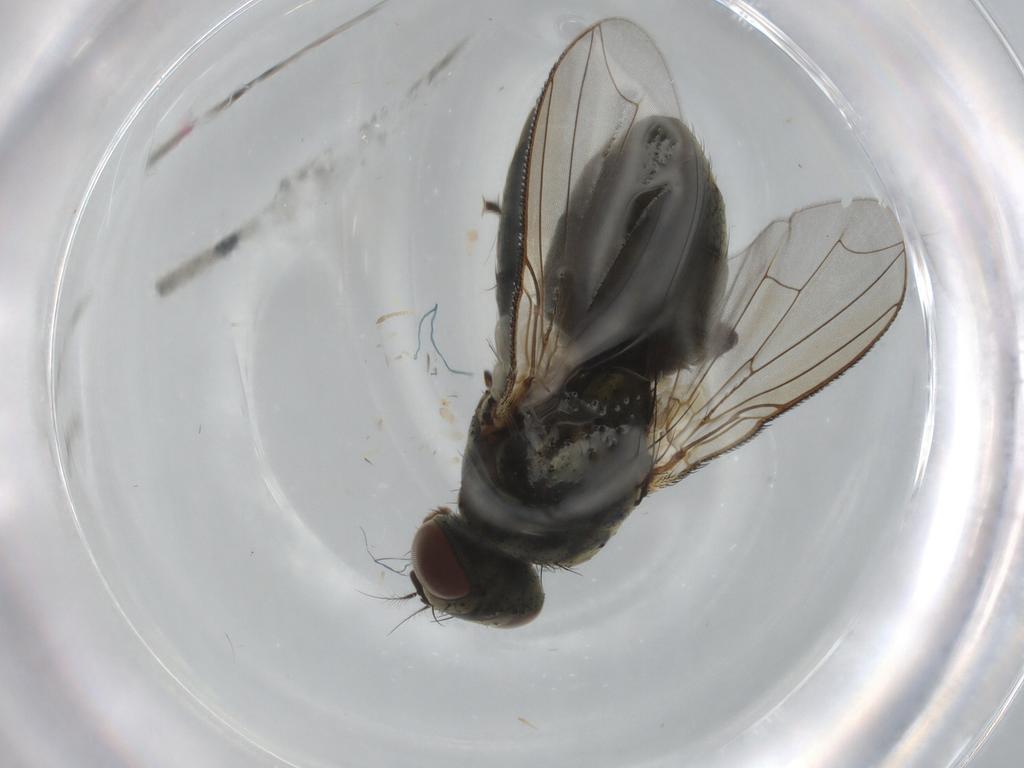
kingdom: Animalia
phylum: Arthropoda
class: Insecta
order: Diptera
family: Sarcophagidae
